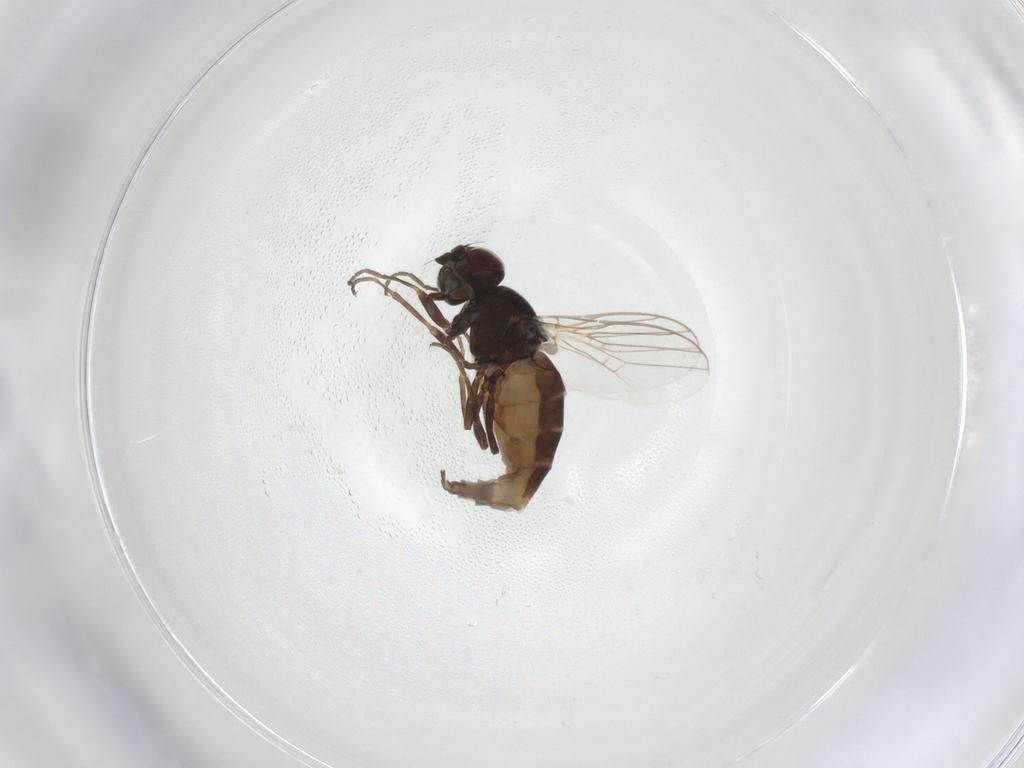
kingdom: Animalia
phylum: Arthropoda
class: Insecta
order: Diptera
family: Chloropidae
